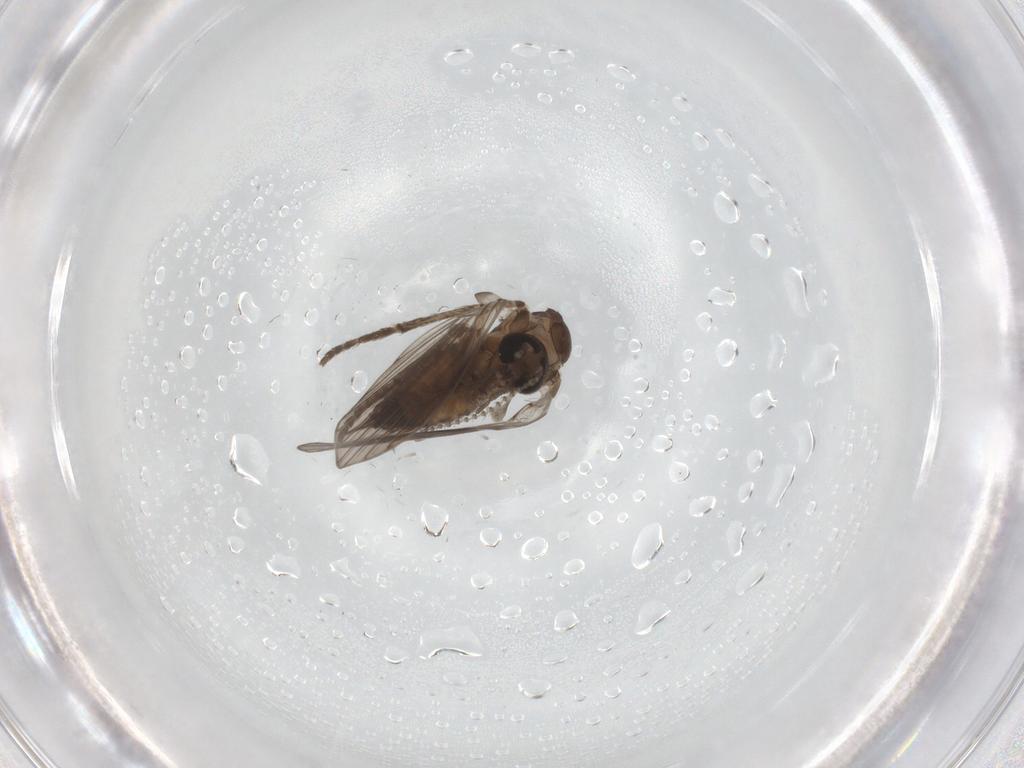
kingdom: Animalia
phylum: Arthropoda
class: Insecta
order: Diptera
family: Psychodidae
